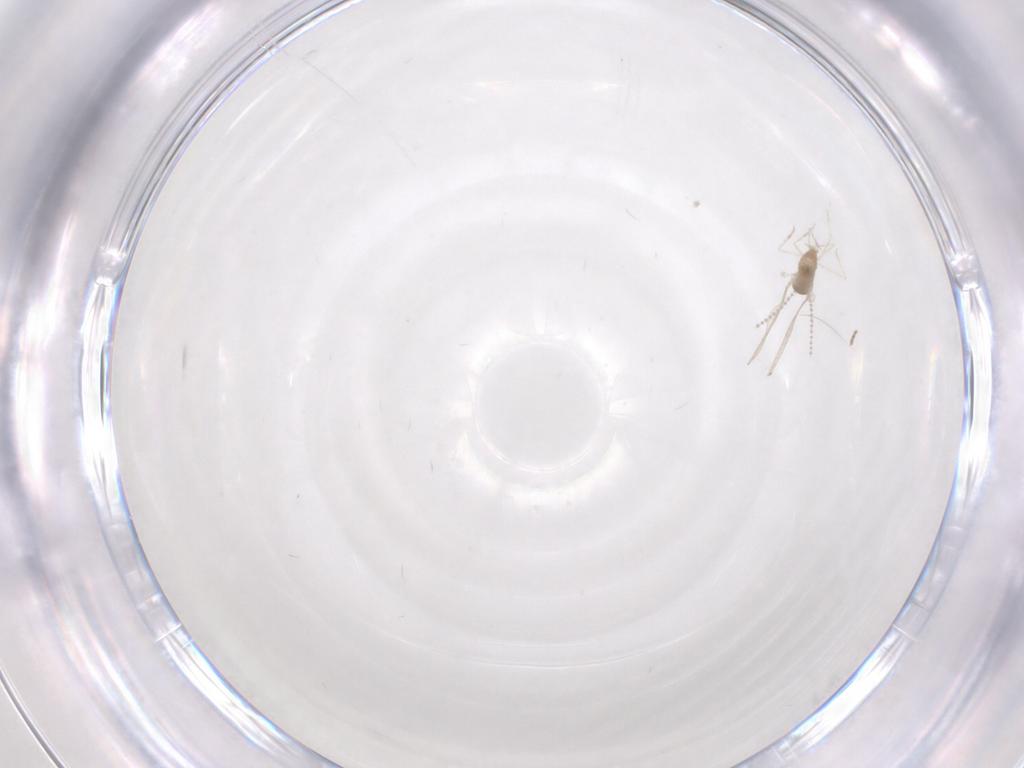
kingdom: Animalia
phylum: Arthropoda
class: Insecta
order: Diptera
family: Cecidomyiidae
